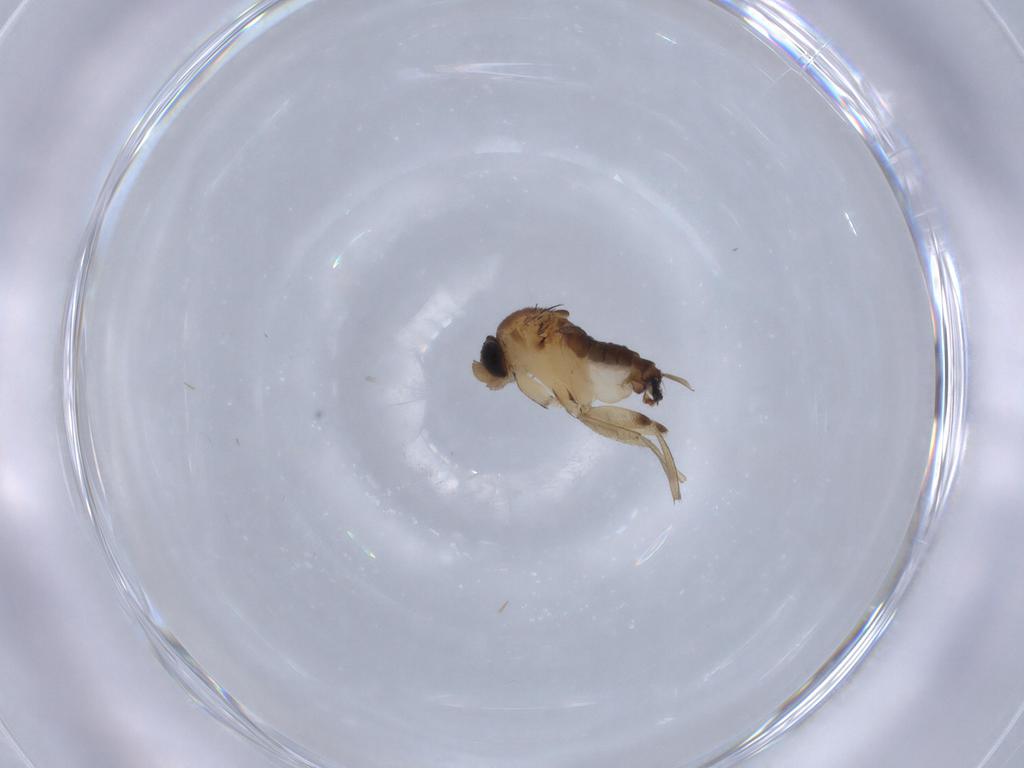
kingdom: Animalia
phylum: Arthropoda
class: Insecta
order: Diptera
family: Phoridae
